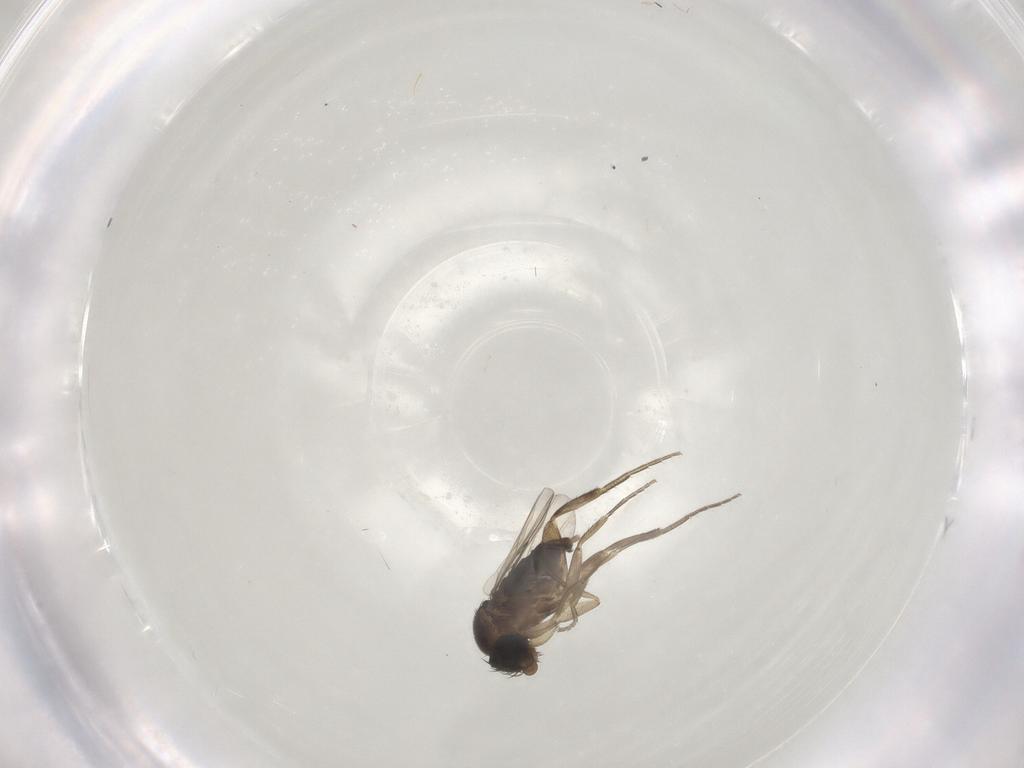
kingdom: Animalia
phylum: Arthropoda
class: Insecta
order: Diptera
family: Phoridae
